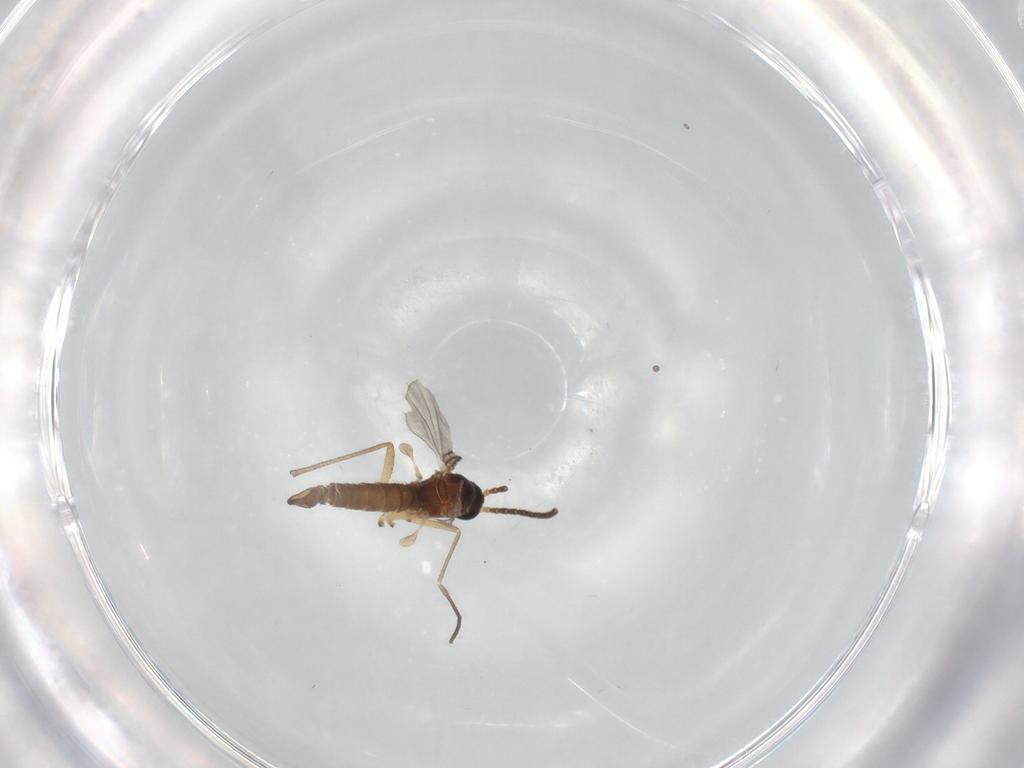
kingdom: Animalia
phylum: Arthropoda
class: Insecta
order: Diptera
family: Sciaridae
